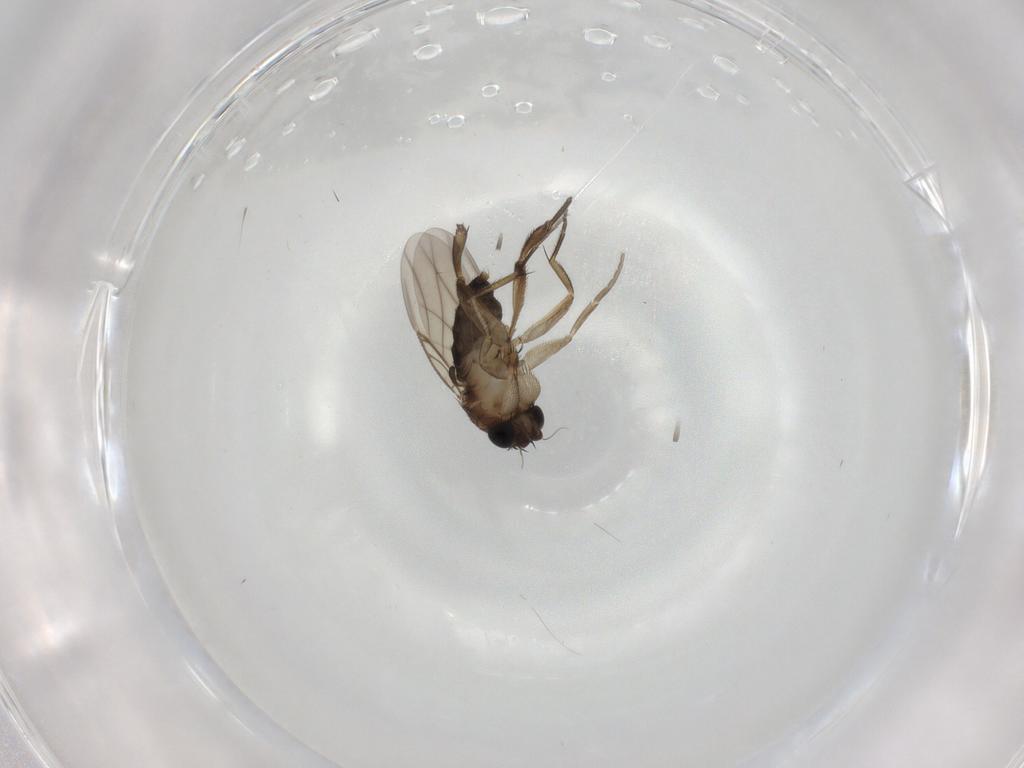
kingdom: Animalia
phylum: Arthropoda
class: Insecta
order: Diptera
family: Phoridae
